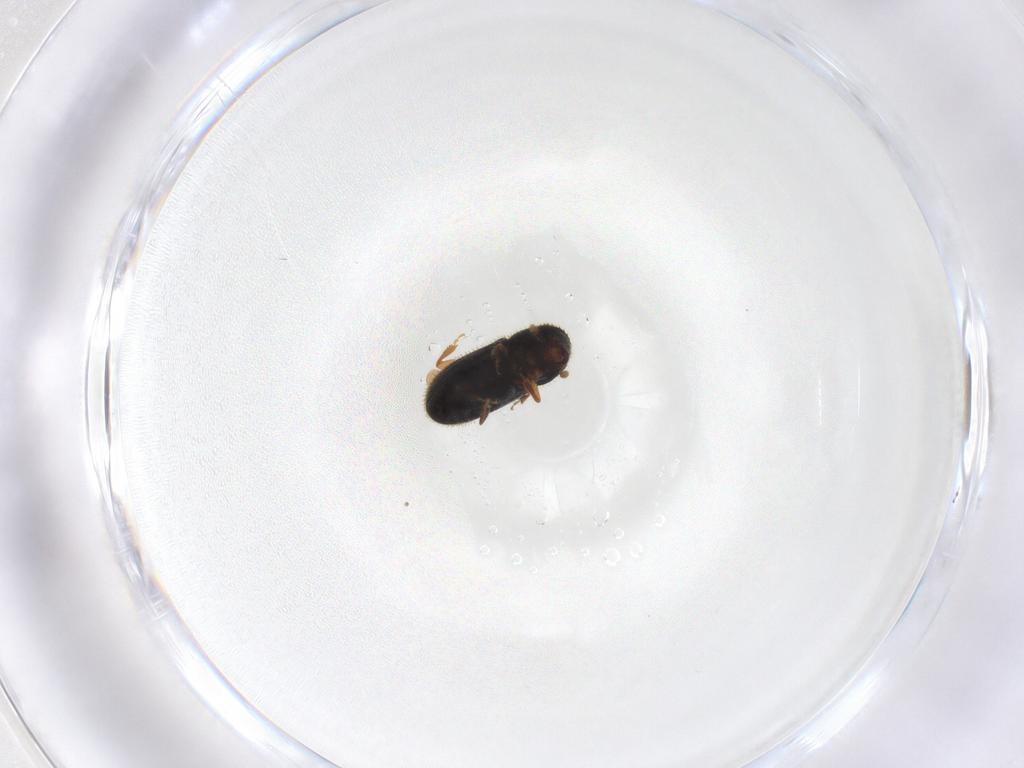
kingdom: Animalia
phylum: Arthropoda
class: Insecta
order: Coleoptera
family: Curculionidae
